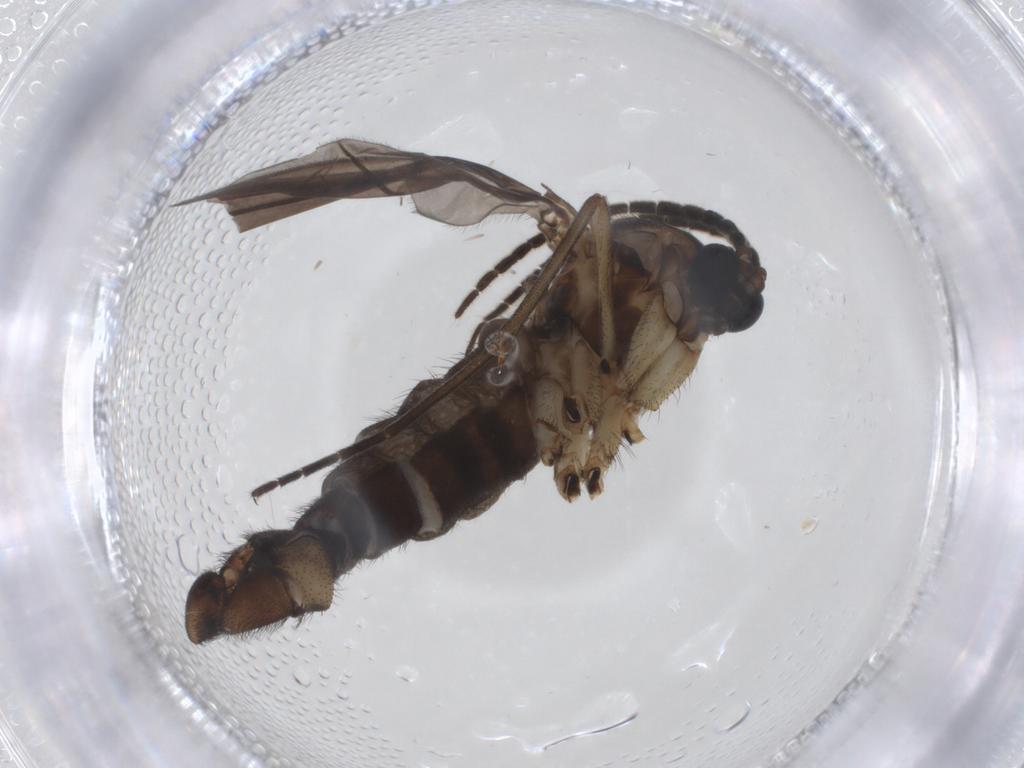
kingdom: Animalia
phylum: Arthropoda
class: Insecta
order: Diptera
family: Sciaridae
